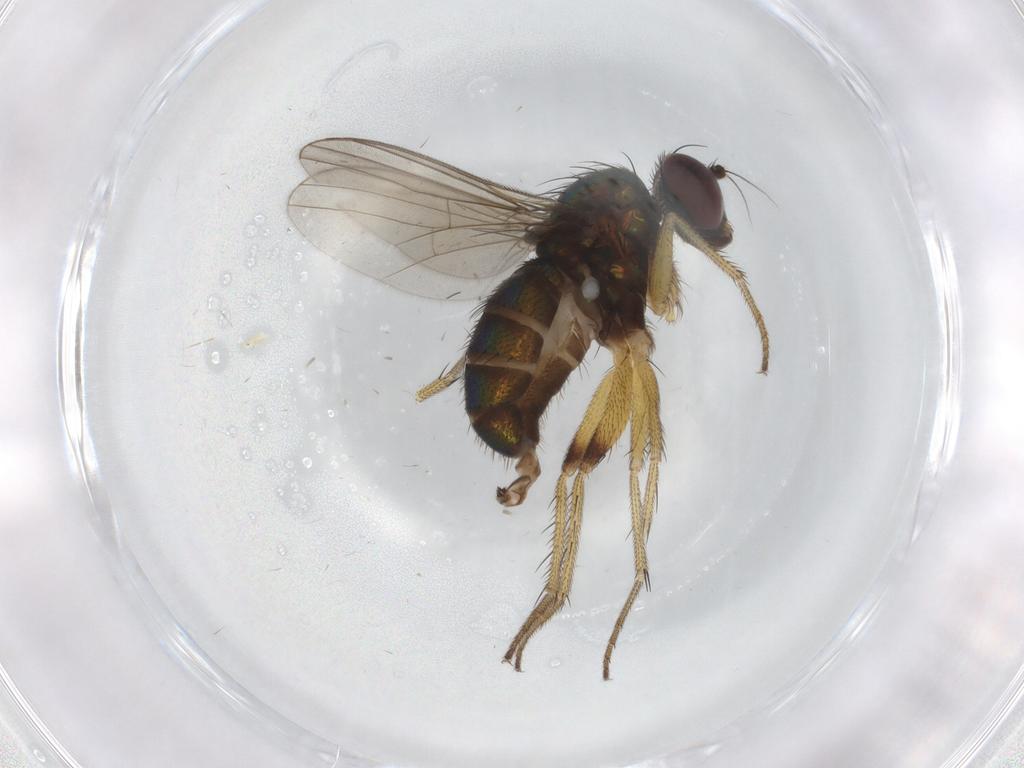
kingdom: Animalia
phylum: Arthropoda
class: Insecta
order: Diptera
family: Dolichopodidae
